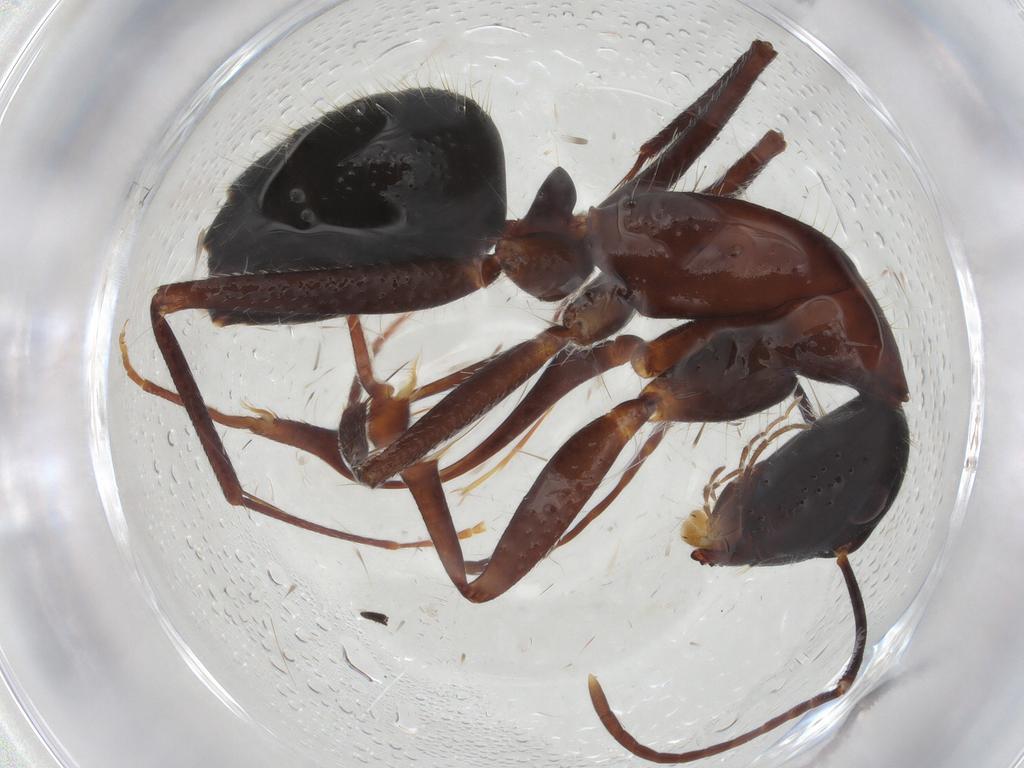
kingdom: Animalia
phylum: Arthropoda
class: Insecta
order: Hymenoptera
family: Formicidae
